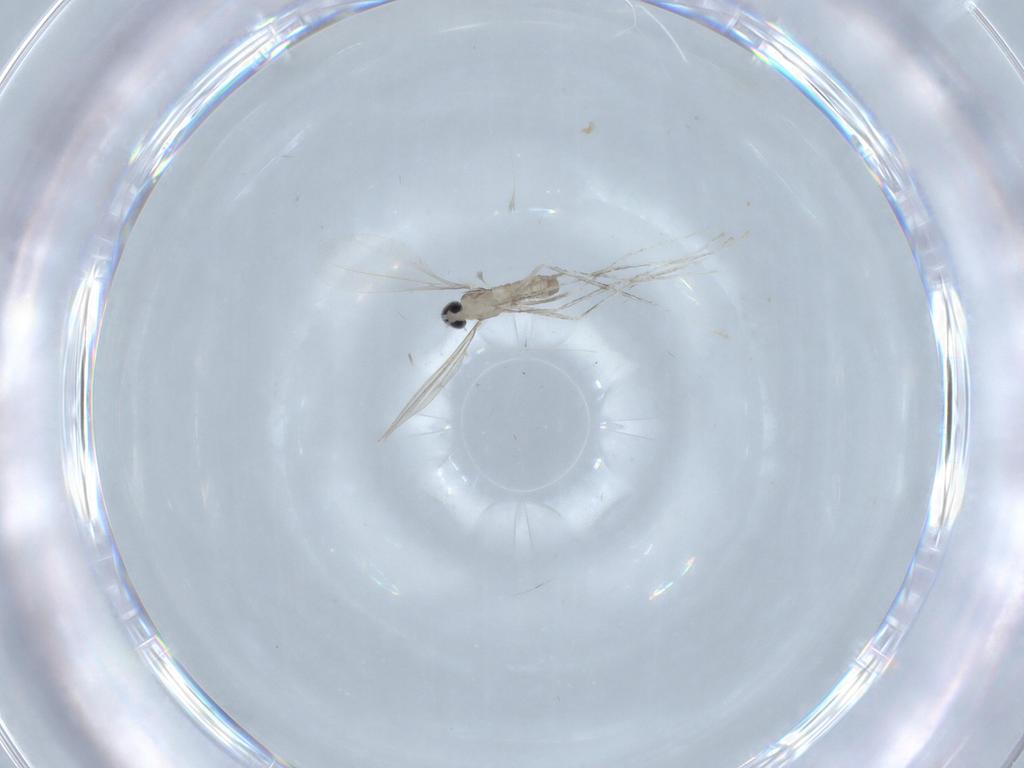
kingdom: Animalia
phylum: Arthropoda
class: Insecta
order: Diptera
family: Cecidomyiidae
